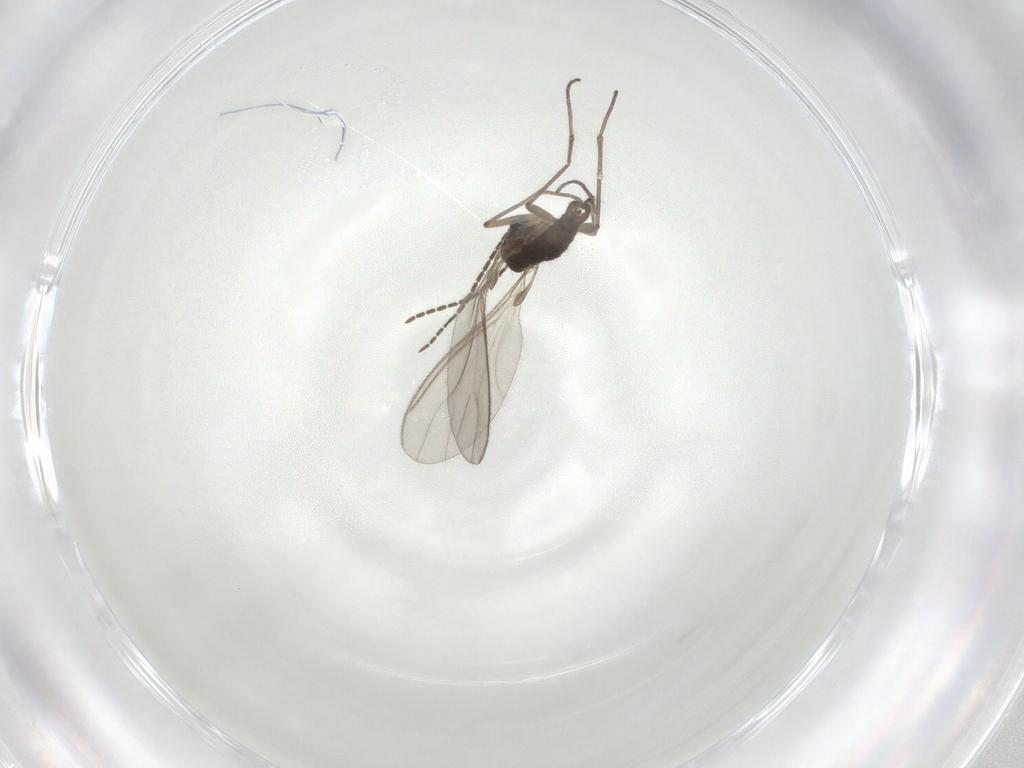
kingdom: Animalia
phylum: Arthropoda
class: Insecta
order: Diptera
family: Sciaridae
